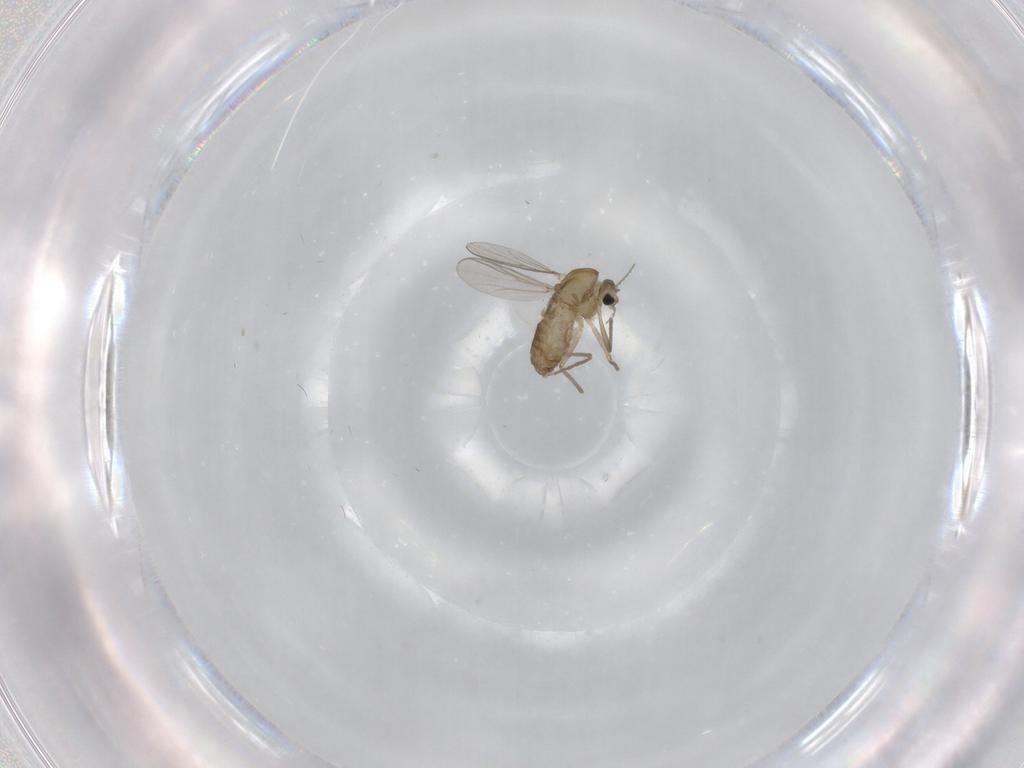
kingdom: Animalia
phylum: Arthropoda
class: Insecta
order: Diptera
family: Chironomidae
